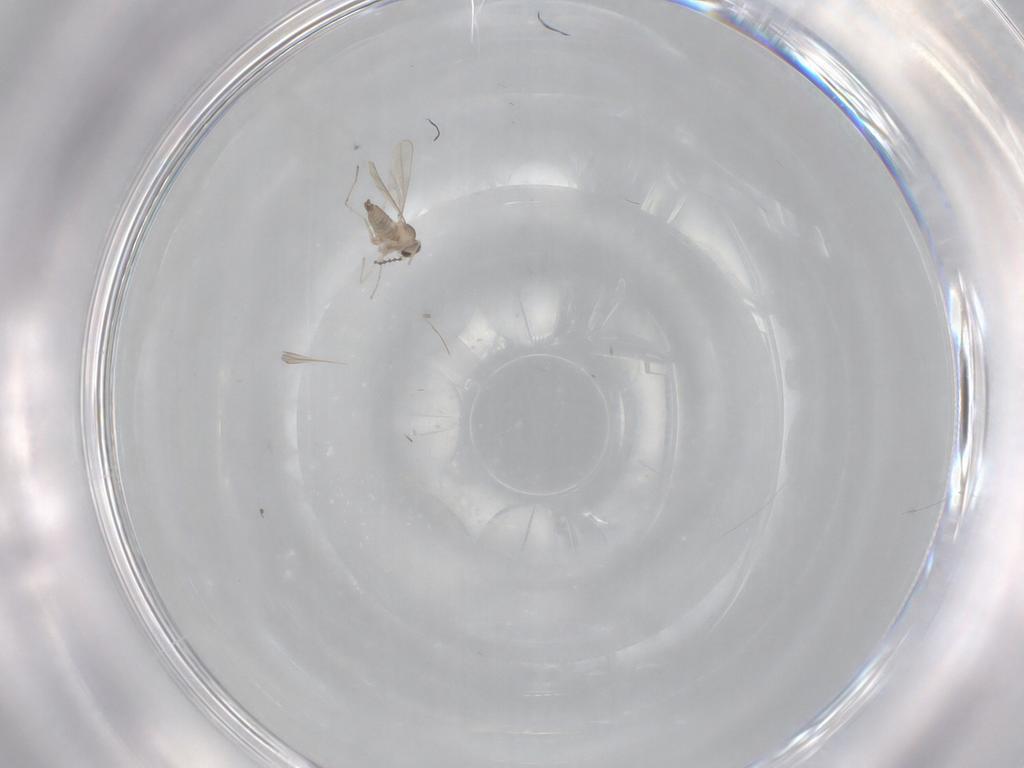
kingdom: Animalia
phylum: Arthropoda
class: Insecta
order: Diptera
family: Cecidomyiidae
